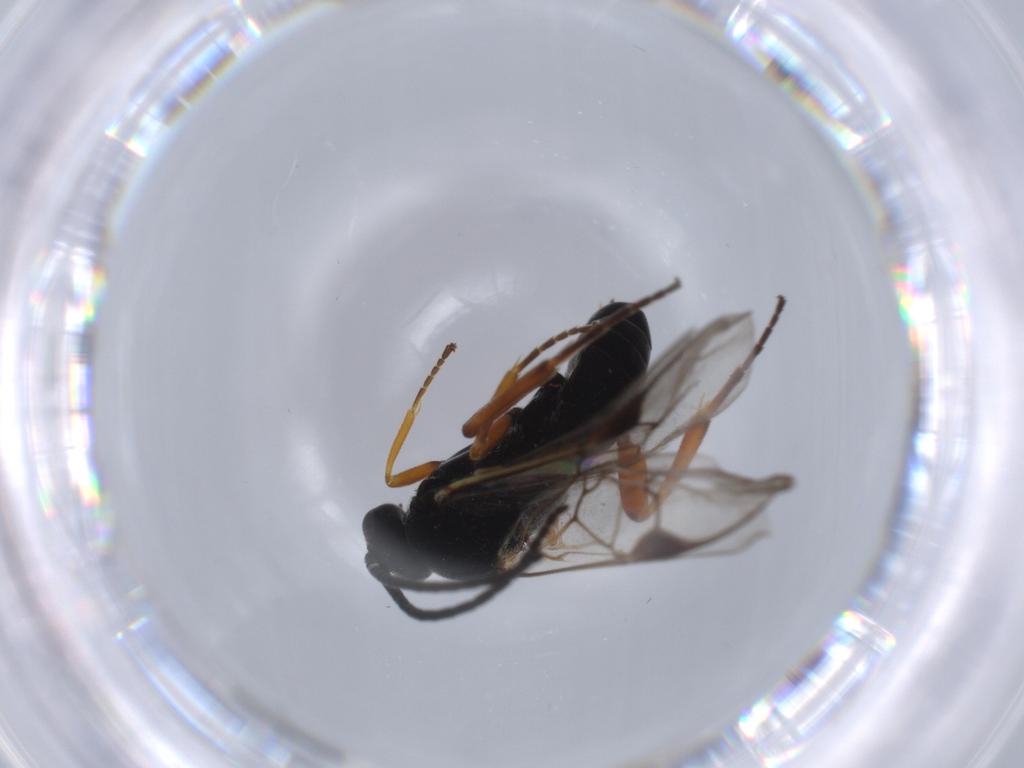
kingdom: Animalia
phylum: Arthropoda
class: Insecta
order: Hymenoptera
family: Braconidae
